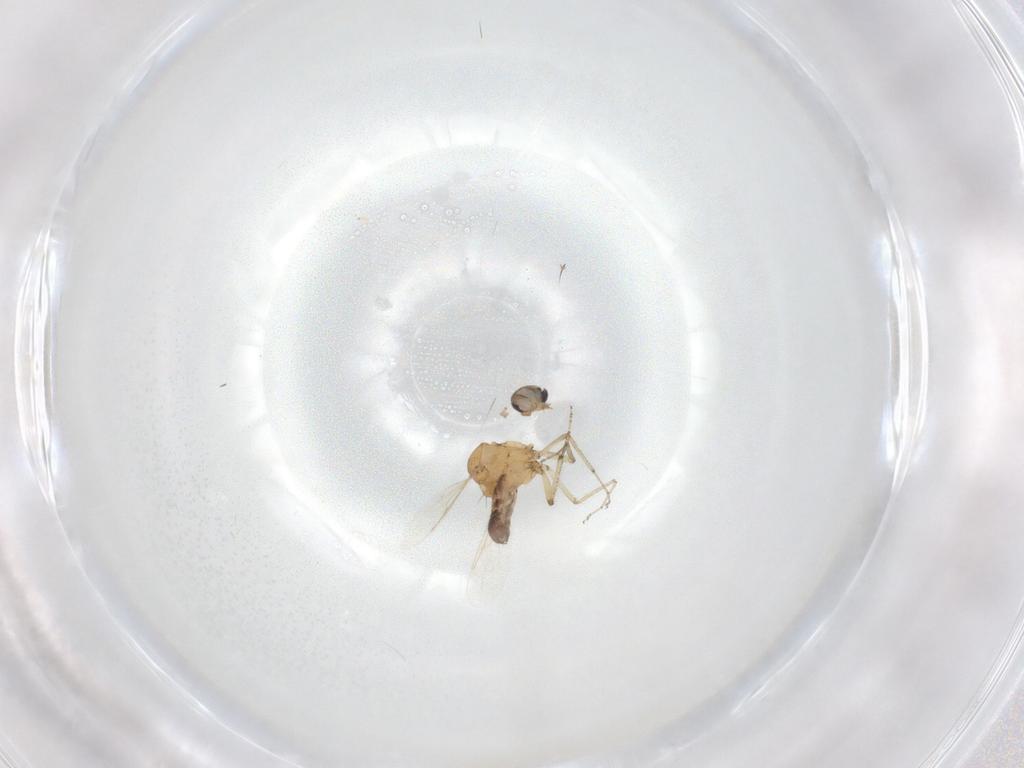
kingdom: Animalia
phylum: Arthropoda
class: Insecta
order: Diptera
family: Ceratopogonidae
